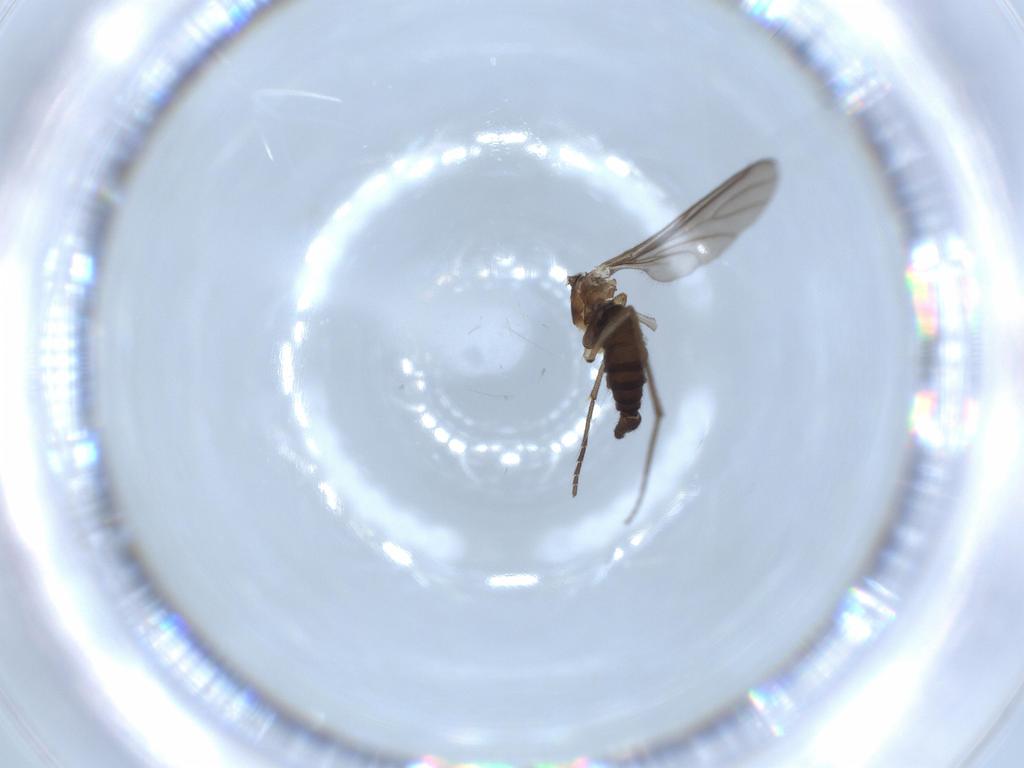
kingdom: Animalia
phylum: Arthropoda
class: Insecta
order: Diptera
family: Sciaridae
